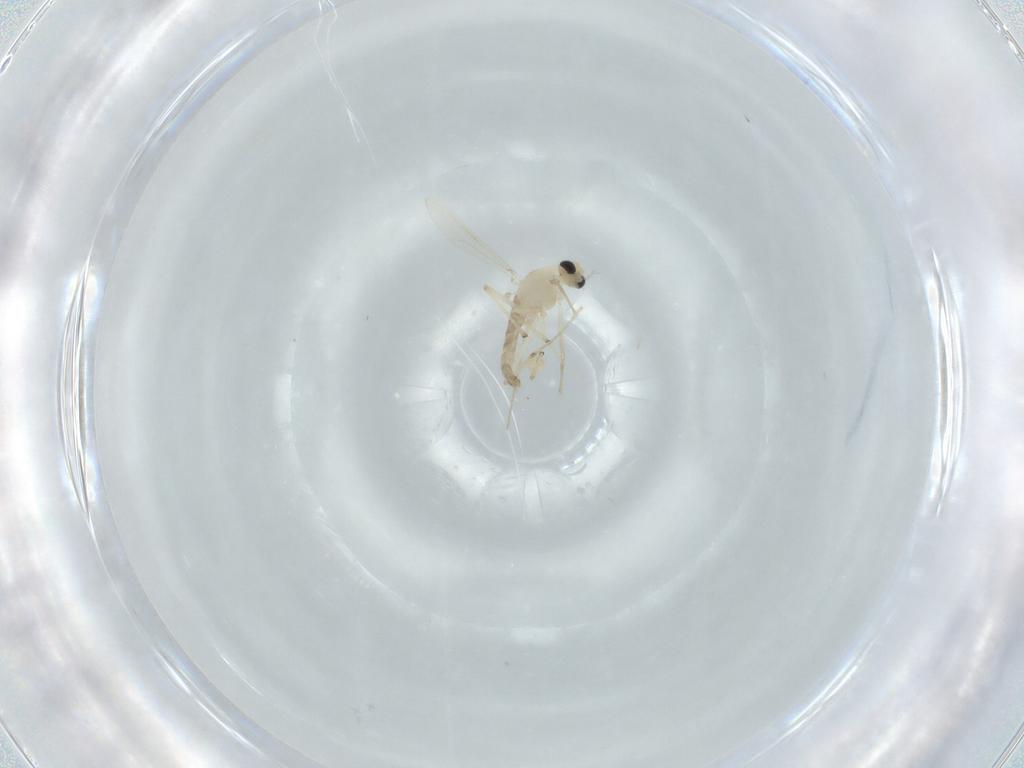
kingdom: Animalia
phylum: Arthropoda
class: Insecta
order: Diptera
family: Chironomidae
